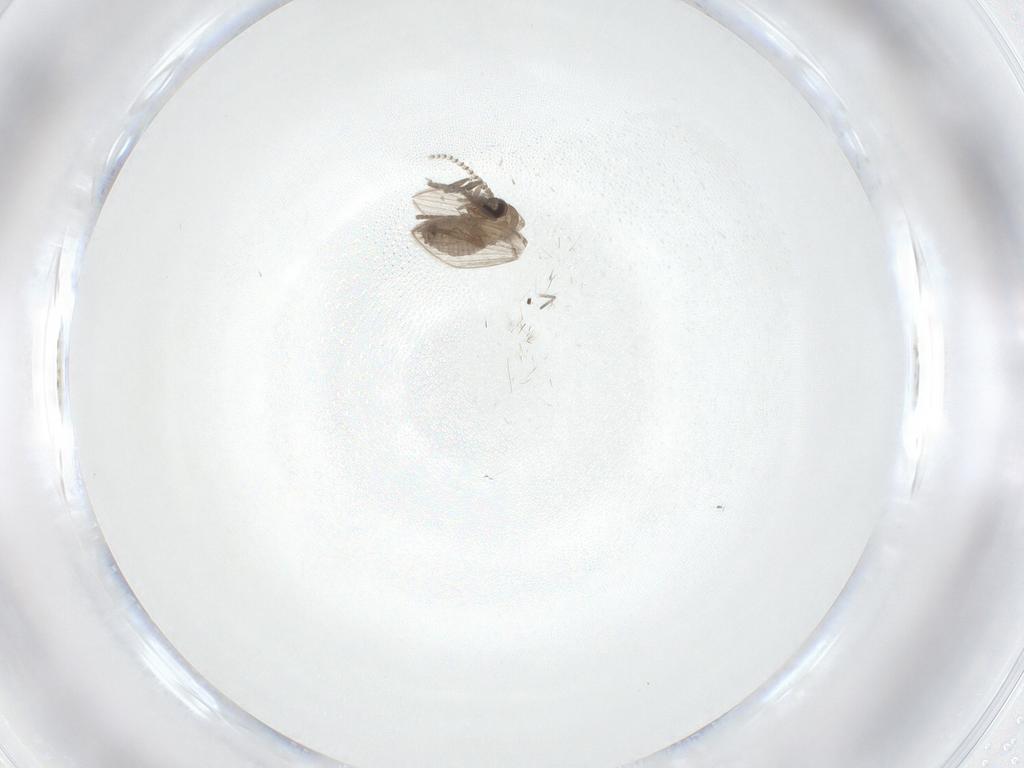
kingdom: Animalia
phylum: Arthropoda
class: Insecta
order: Diptera
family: Psychodidae
